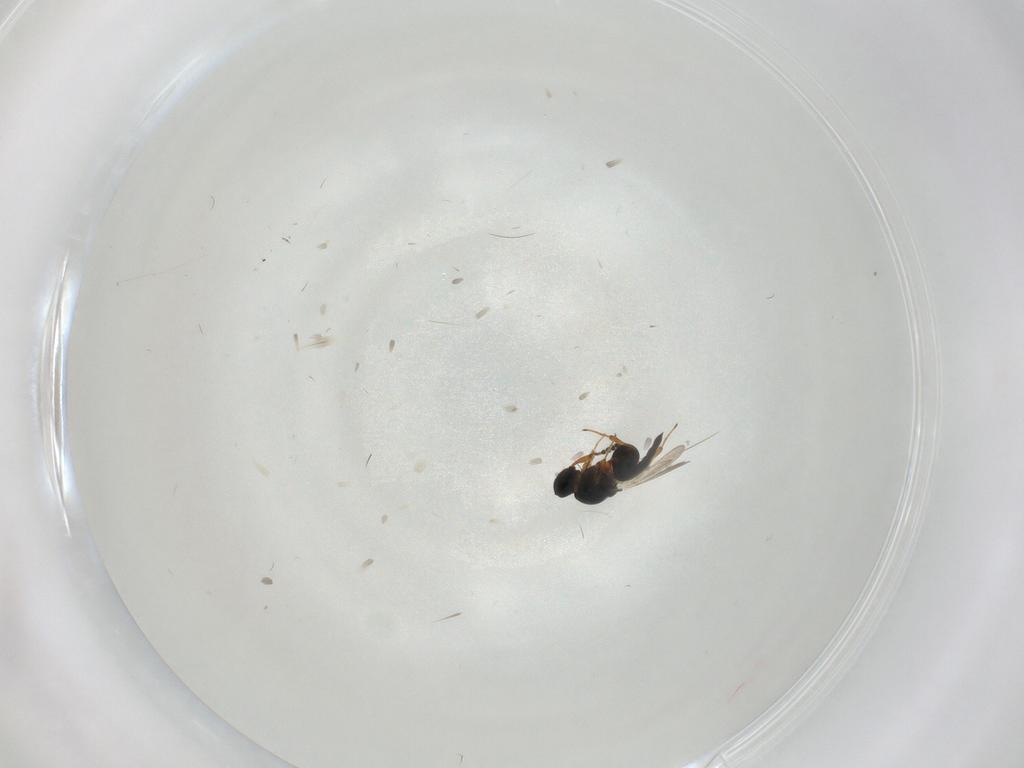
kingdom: Animalia
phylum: Arthropoda
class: Insecta
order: Hymenoptera
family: Platygastridae
